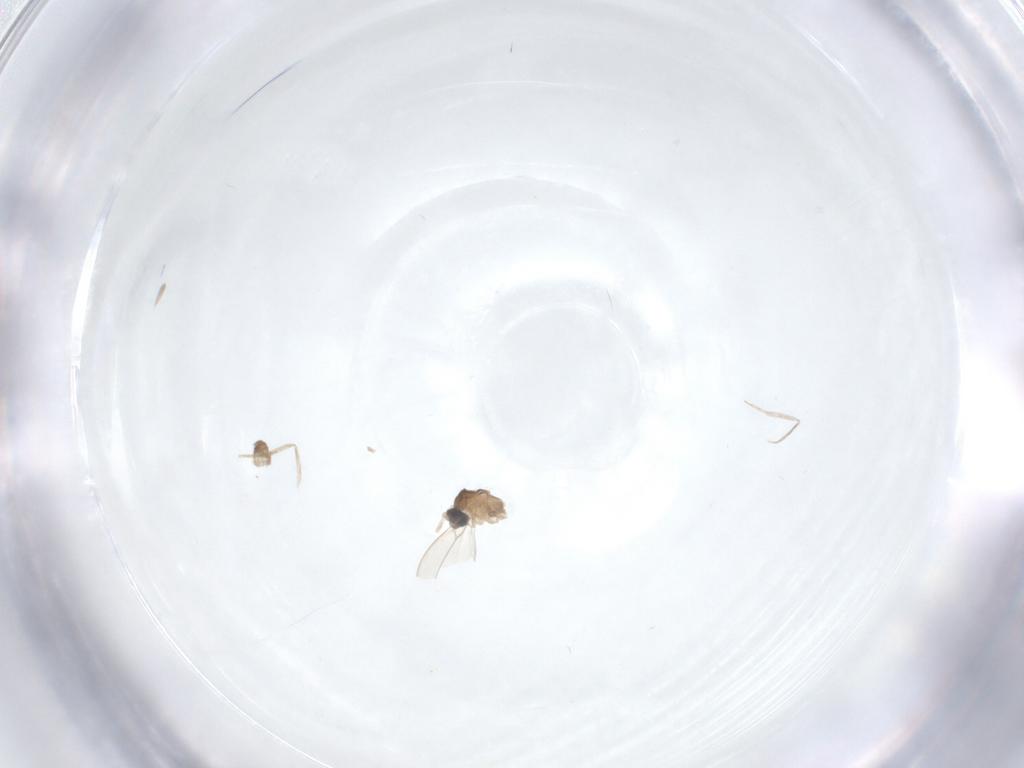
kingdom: Animalia
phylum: Arthropoda
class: Insecta
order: Diptera
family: Cecidomyiidae
